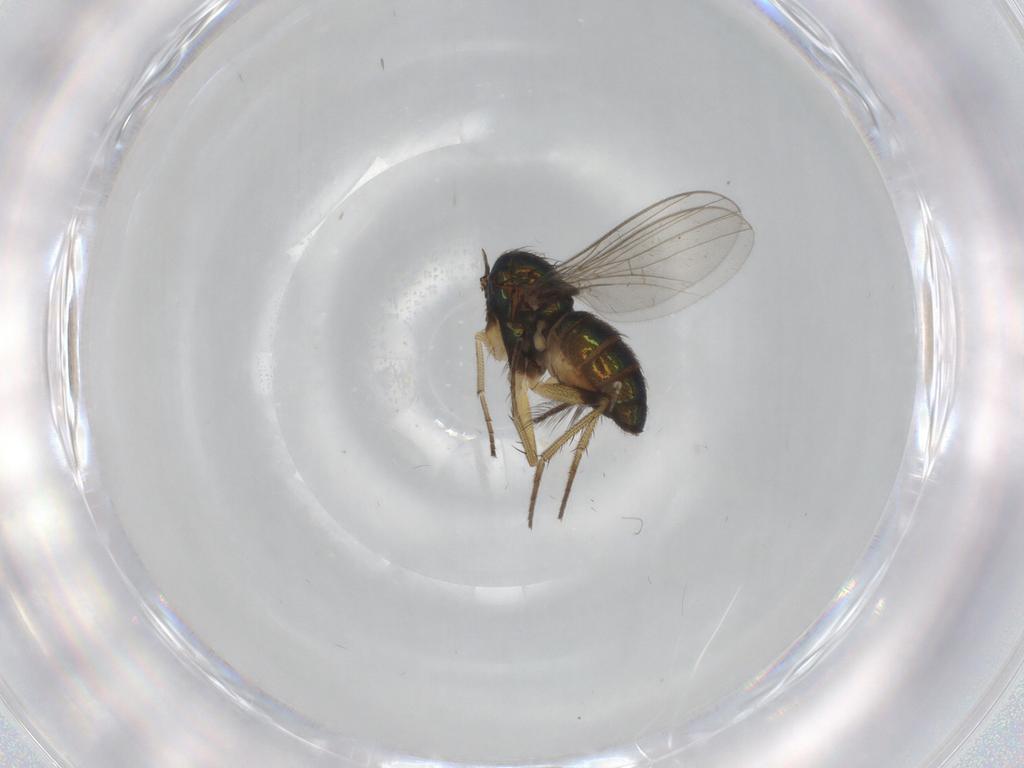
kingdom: Animalia
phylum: Arthropoda
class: Insecta
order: Diptera
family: Dolichopodidae
